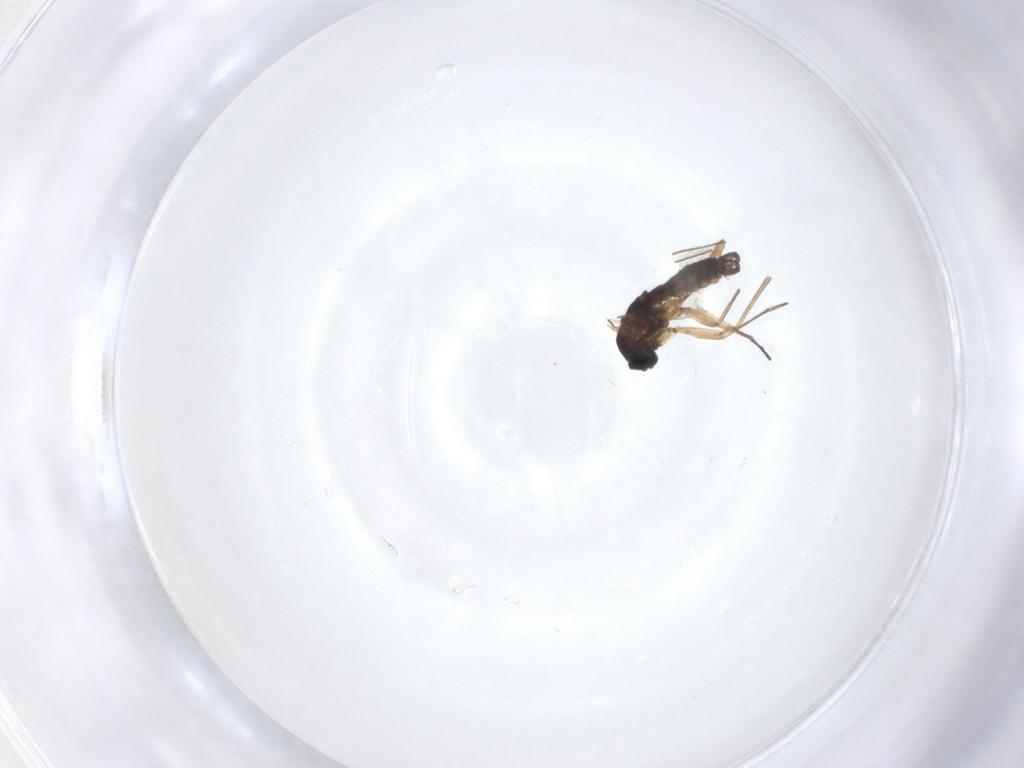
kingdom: Animalia
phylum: Arthropoda
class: Insecta
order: Diptera
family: Sciaridae
